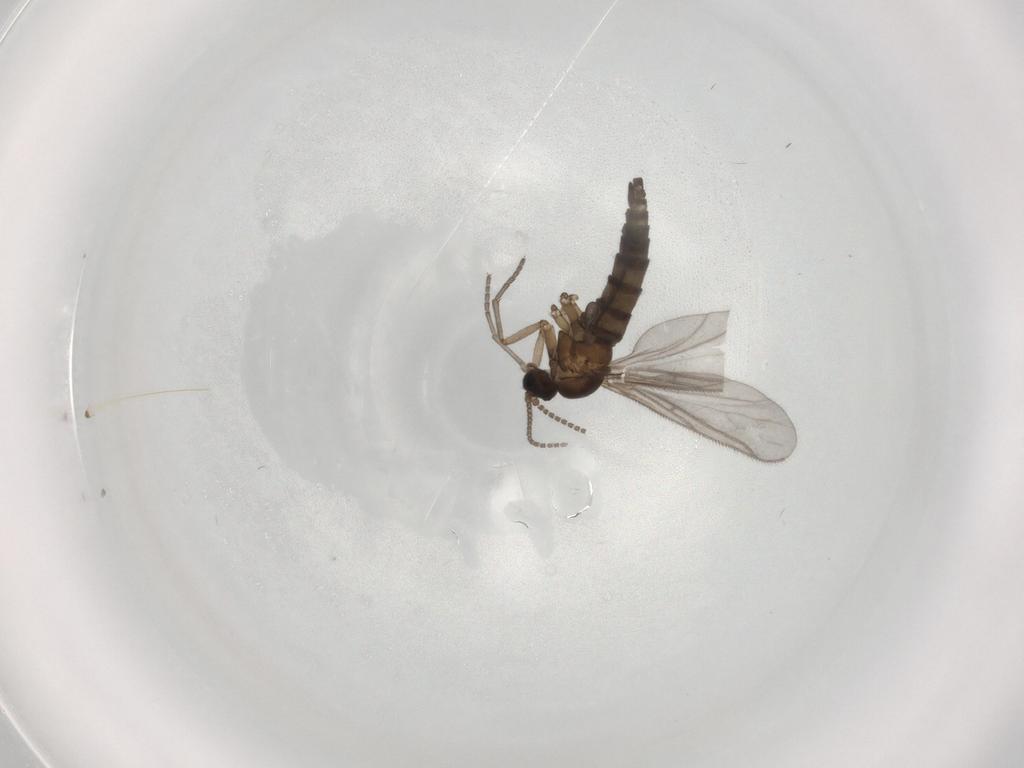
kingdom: Animalia
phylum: Arthropoda
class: Insecta
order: Diptera
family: Sciaridae
